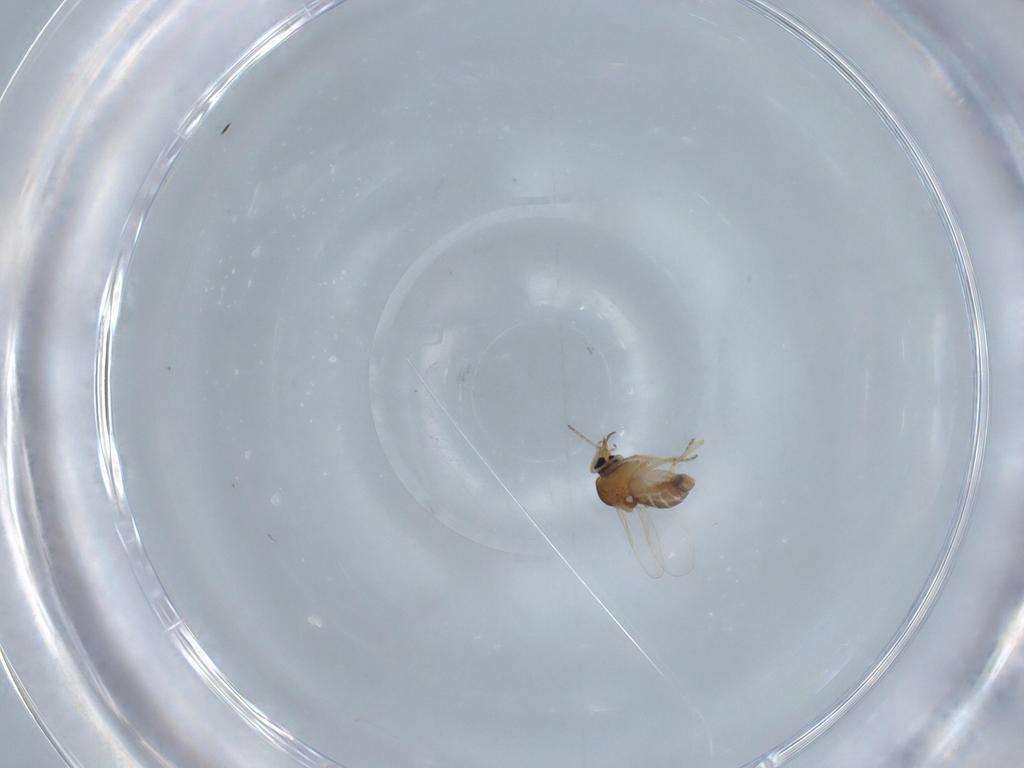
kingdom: Animalia
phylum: Arthropoda
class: Insecta
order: Diptera
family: Ceratopogonidae
